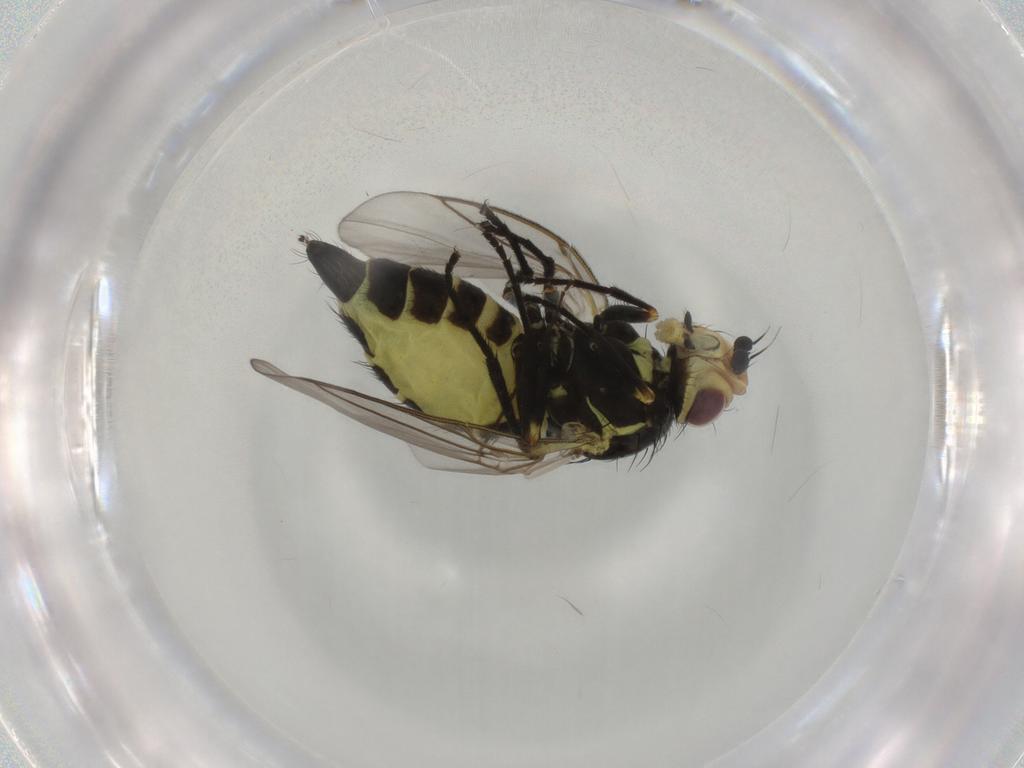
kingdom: Animalia
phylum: Arthropoda
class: Insecta
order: Diptera
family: Agromyzidae
